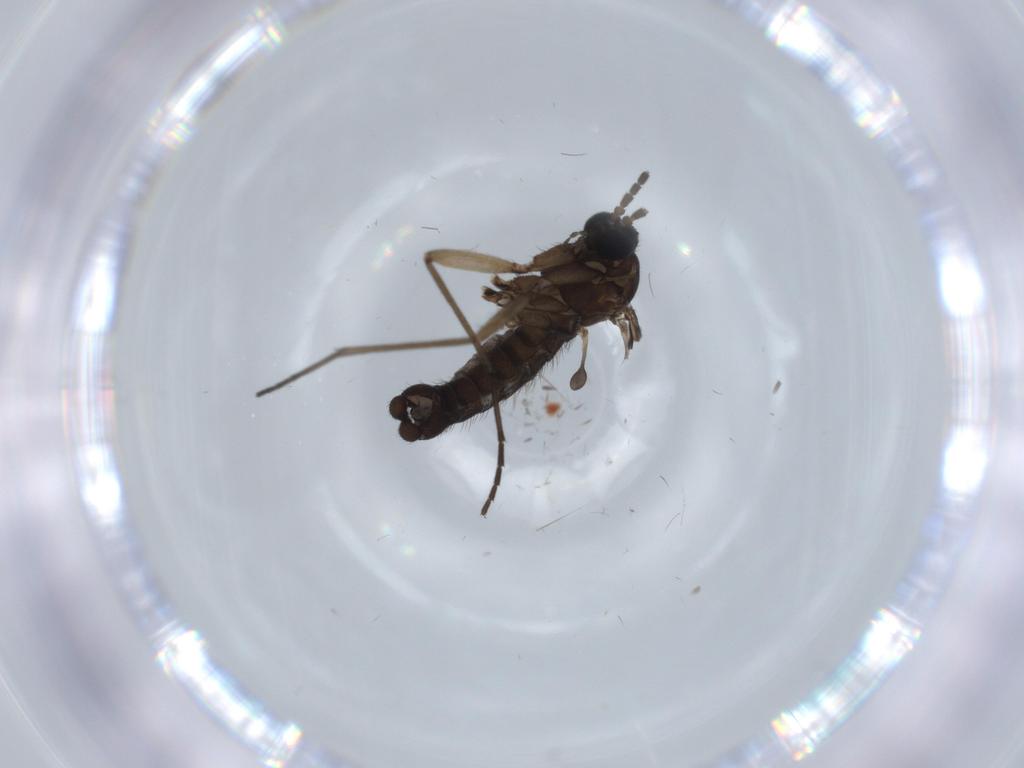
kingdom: Animalia
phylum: Arthropoda
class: Insecta
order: Diptera
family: Sciaridae
